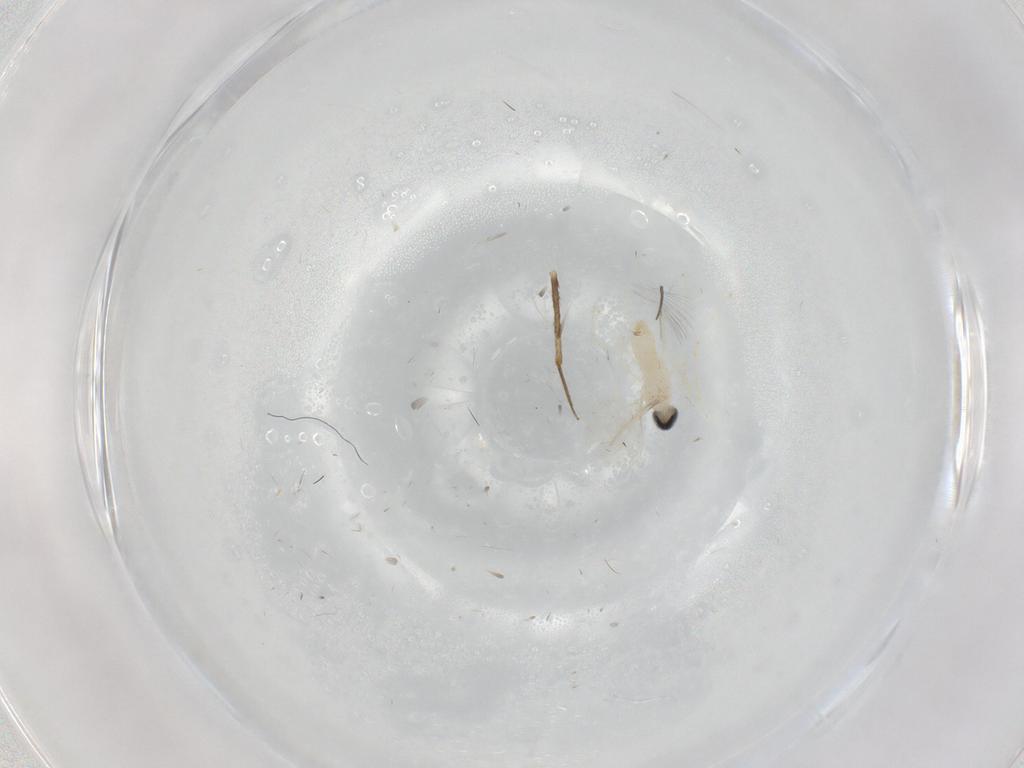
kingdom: Animalia
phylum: Arthropoda
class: Insecta
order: Diptera
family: Cecidomyiidae
